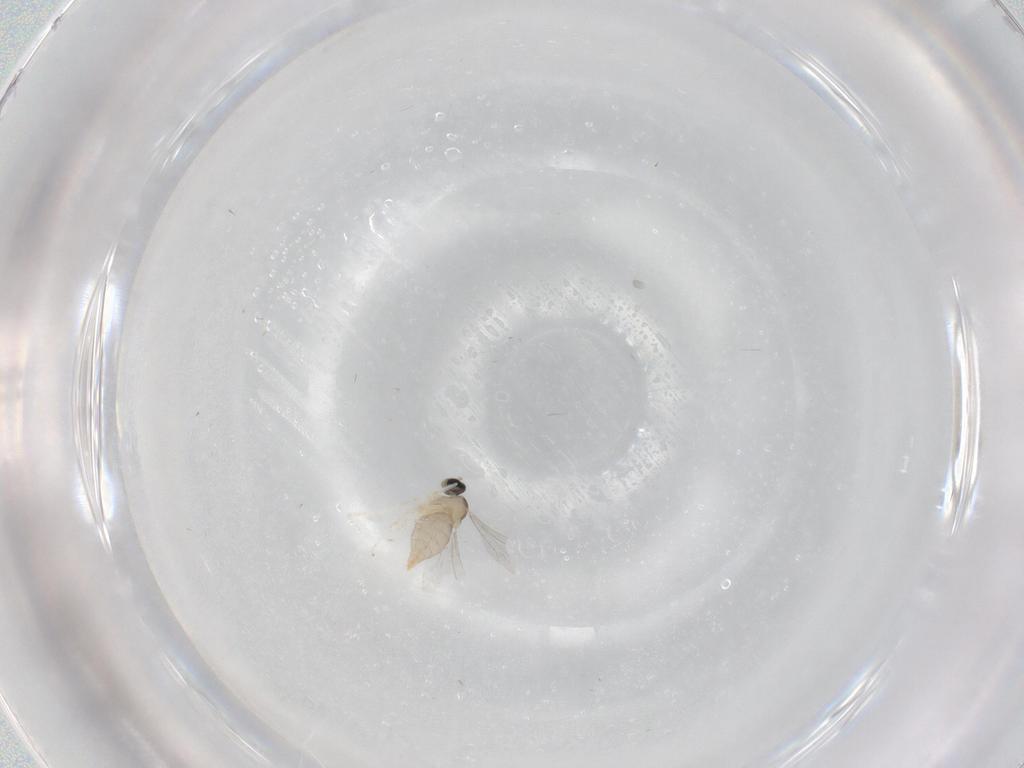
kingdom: Animalia
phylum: Arthropoda
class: Insecta
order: Diptera
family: Cecidomyiidae
